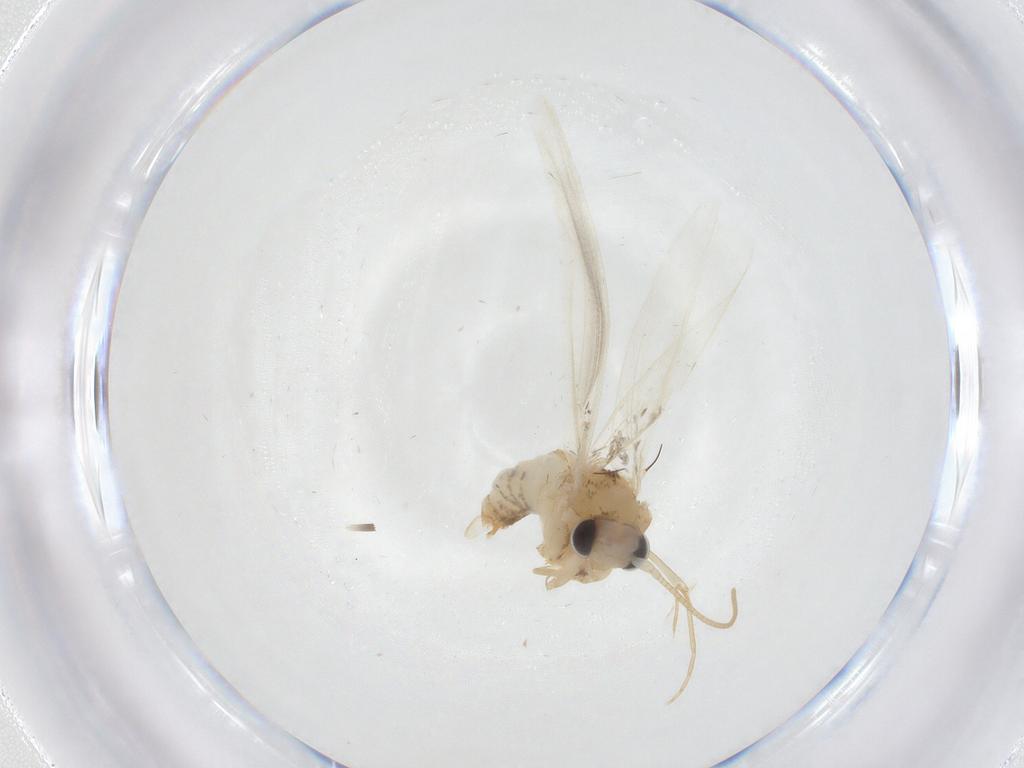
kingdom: Animalia
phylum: Arthropoda
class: Insecta
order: Lepidoptera
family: Tineidae
